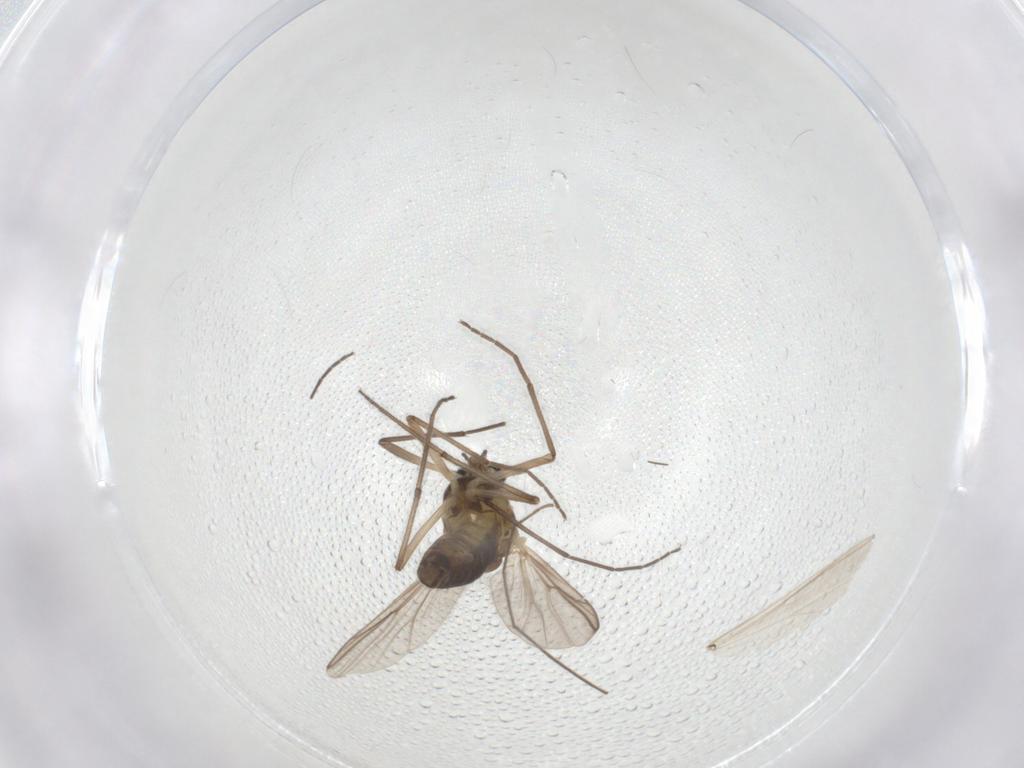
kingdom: Animalia
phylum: Arthropoda
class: Insecta
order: Diptera
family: Chironomidae
